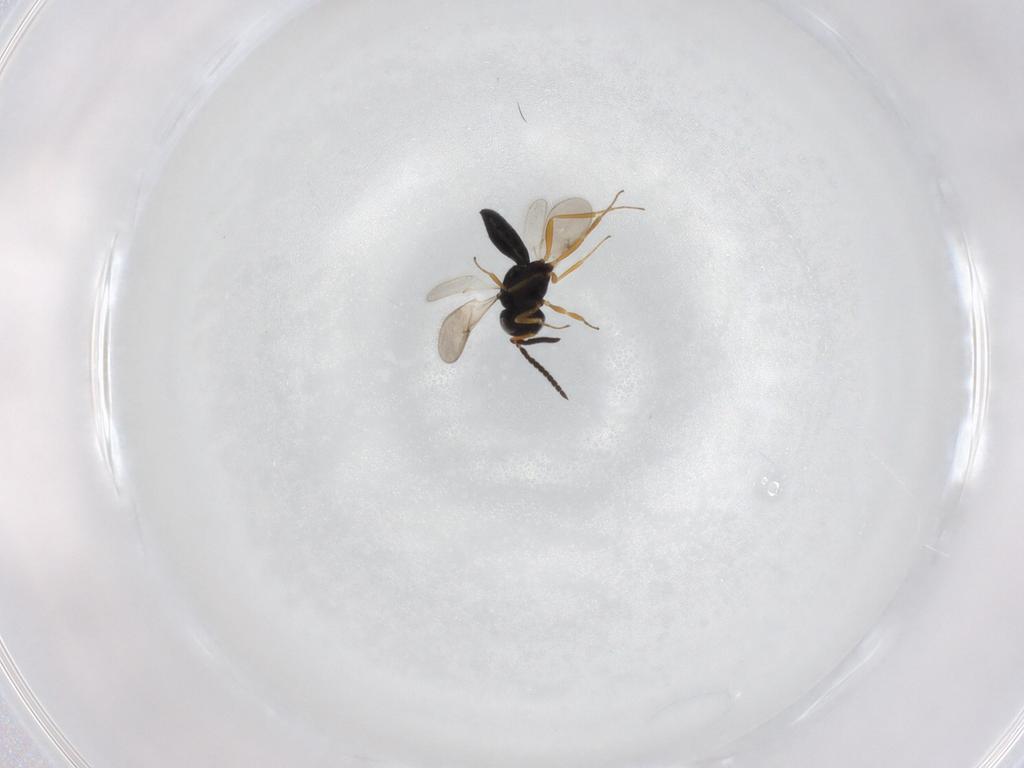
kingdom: Animalia
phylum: Arthropoda
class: Insecta
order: Hymenoptera
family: Scelionidae
